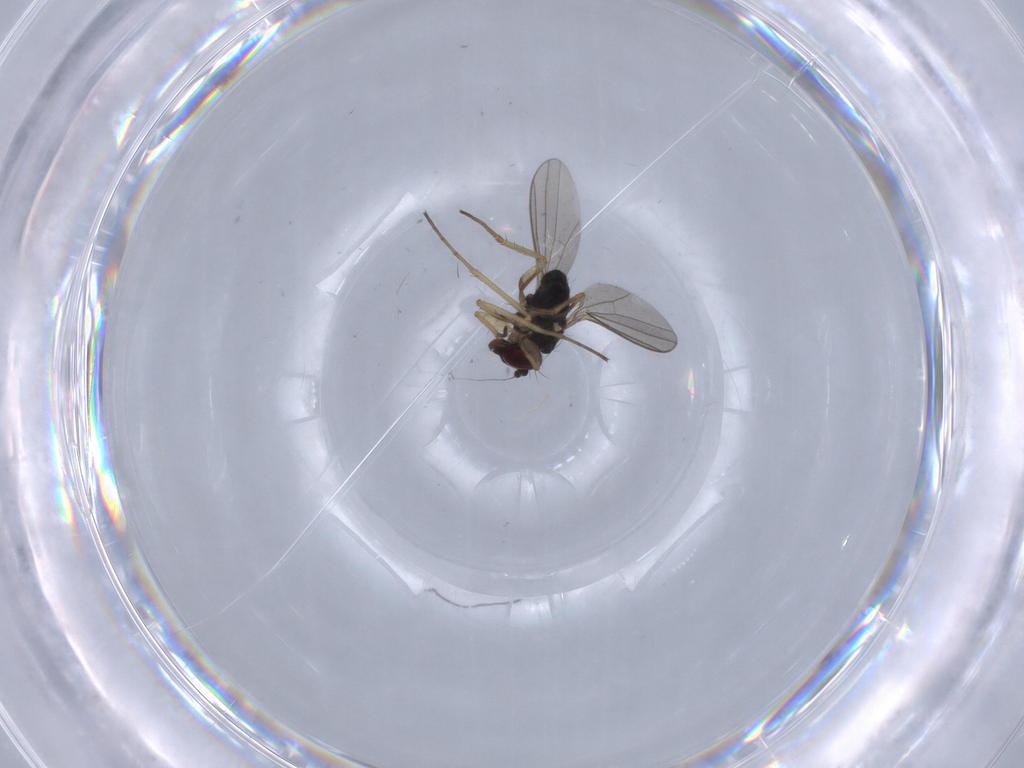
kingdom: Animalia
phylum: Arthropoda
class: Insecta
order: Diptera
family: Dolichopodidae
